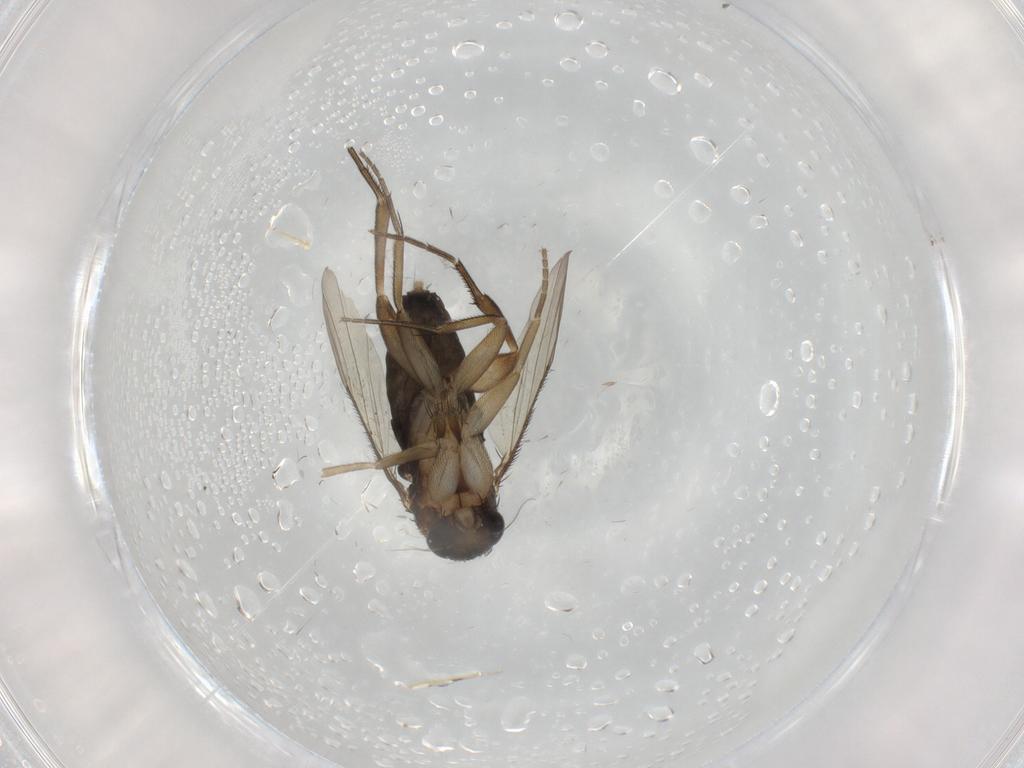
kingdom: Animalia
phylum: Arthropoda
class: Insecta
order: Diptera
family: Phoridae
